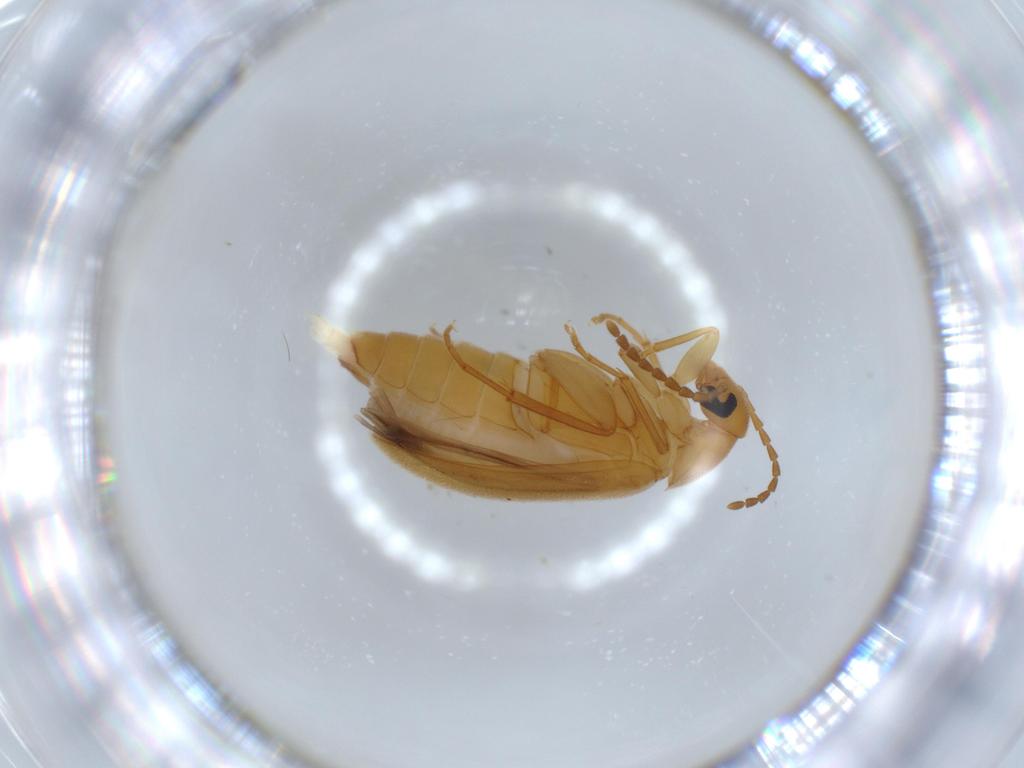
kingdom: Animalia
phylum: Arthropoda
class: Insecta
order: Coleoptera
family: Scraptiidae
